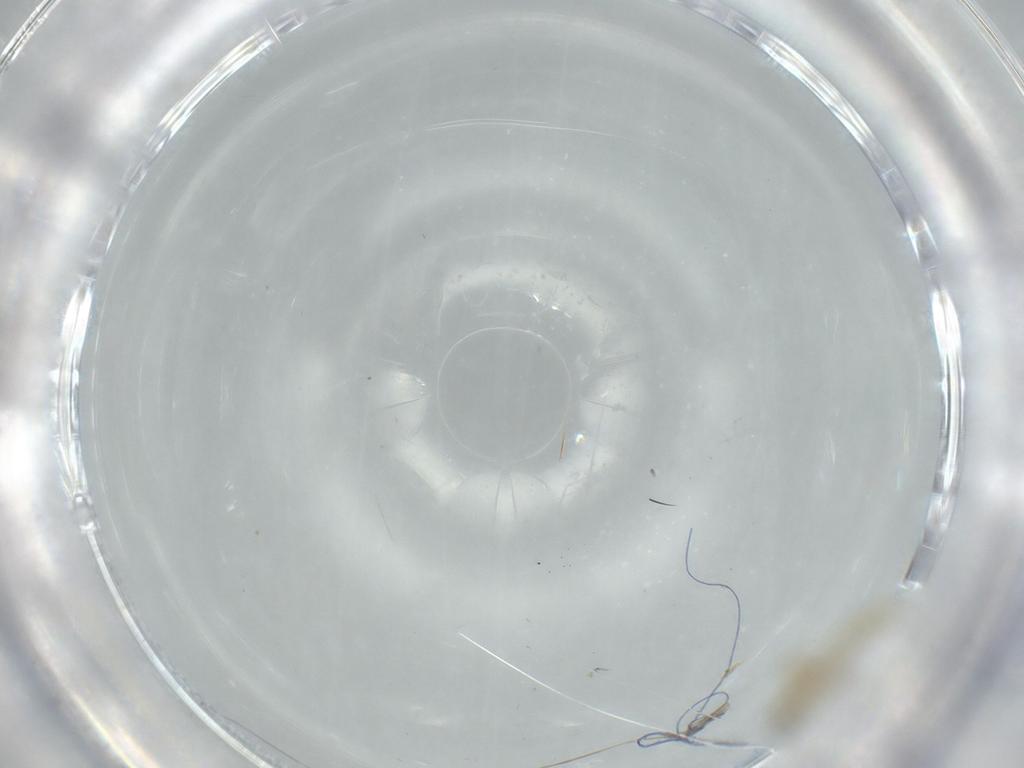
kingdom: Animalia
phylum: Arthropoda
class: Insecta
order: Diptera
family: Chironomidae
